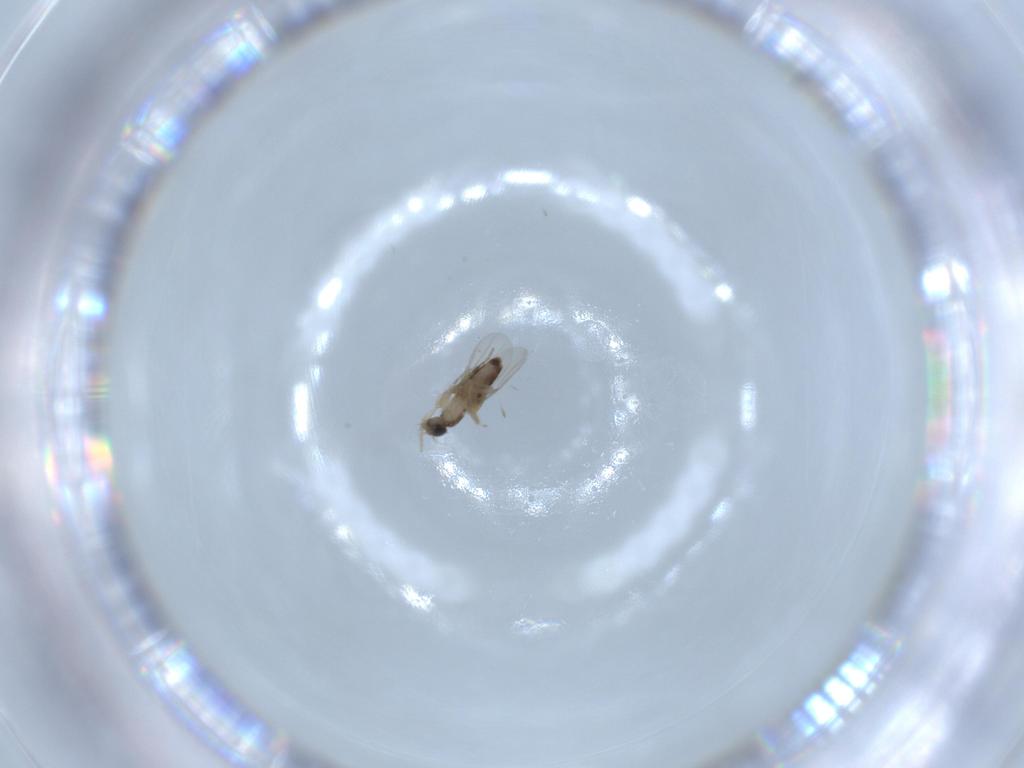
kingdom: Animalia
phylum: Arthropoda
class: Insecta
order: Diptera
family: Phoridae
